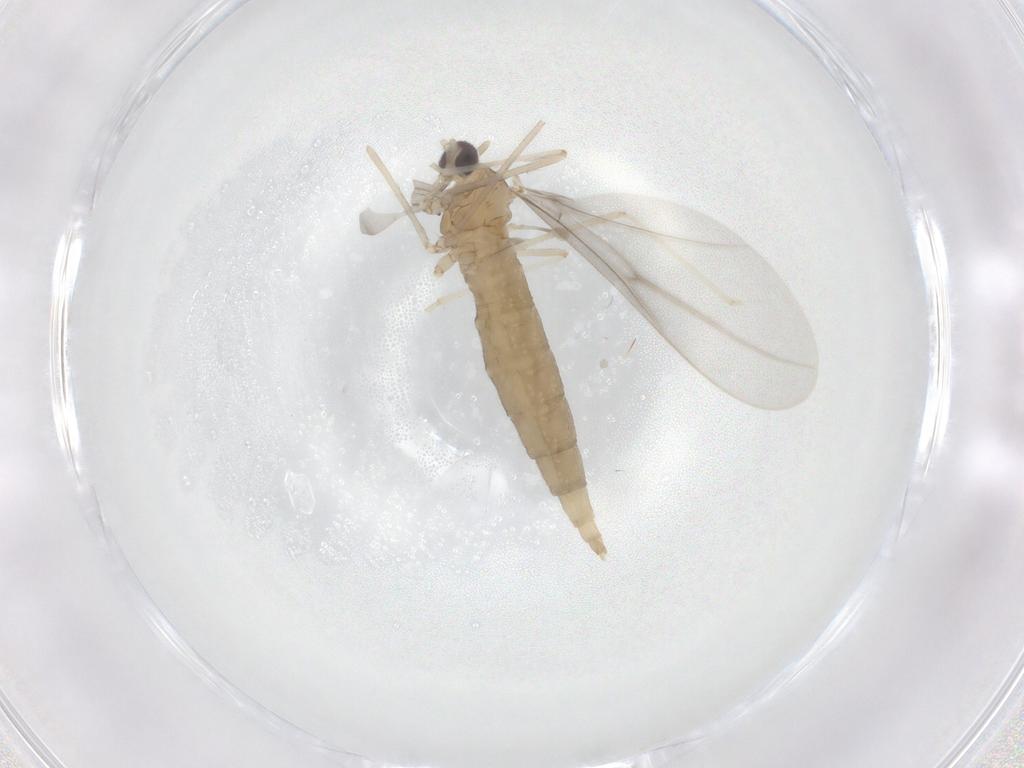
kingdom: Animalia
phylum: Arthropoda
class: Insecta
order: Diptera
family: Cecidomyiidae
